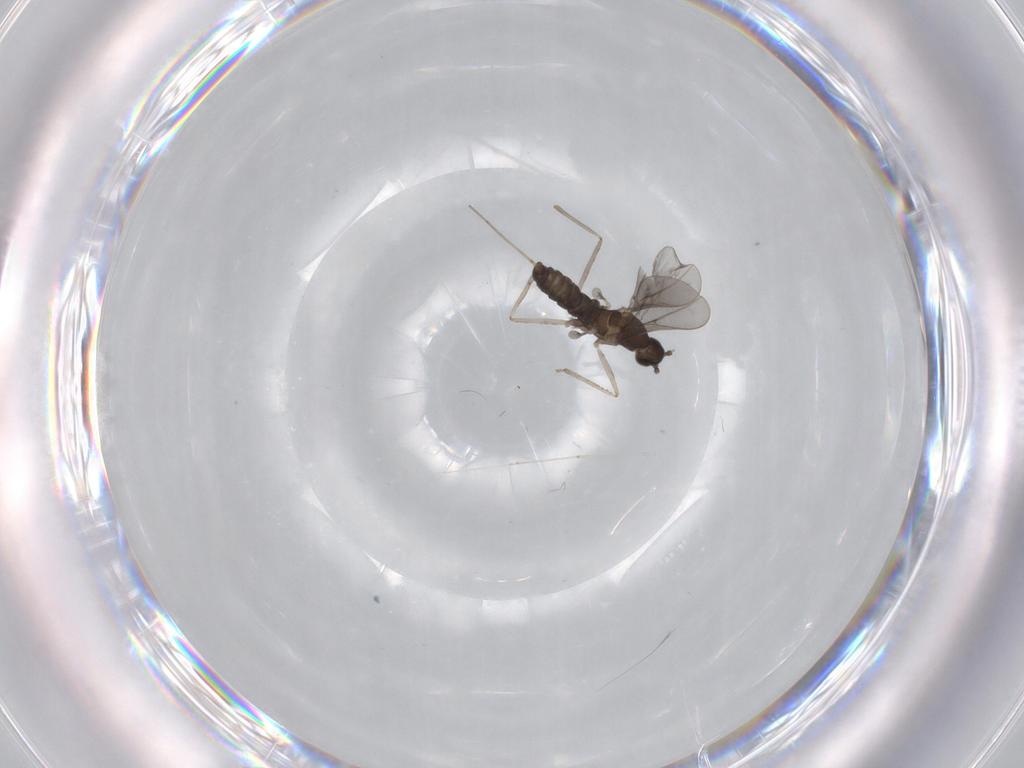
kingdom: Animalia
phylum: Arthropoda
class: Insecta
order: Diptera
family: Cecidomyiidae
